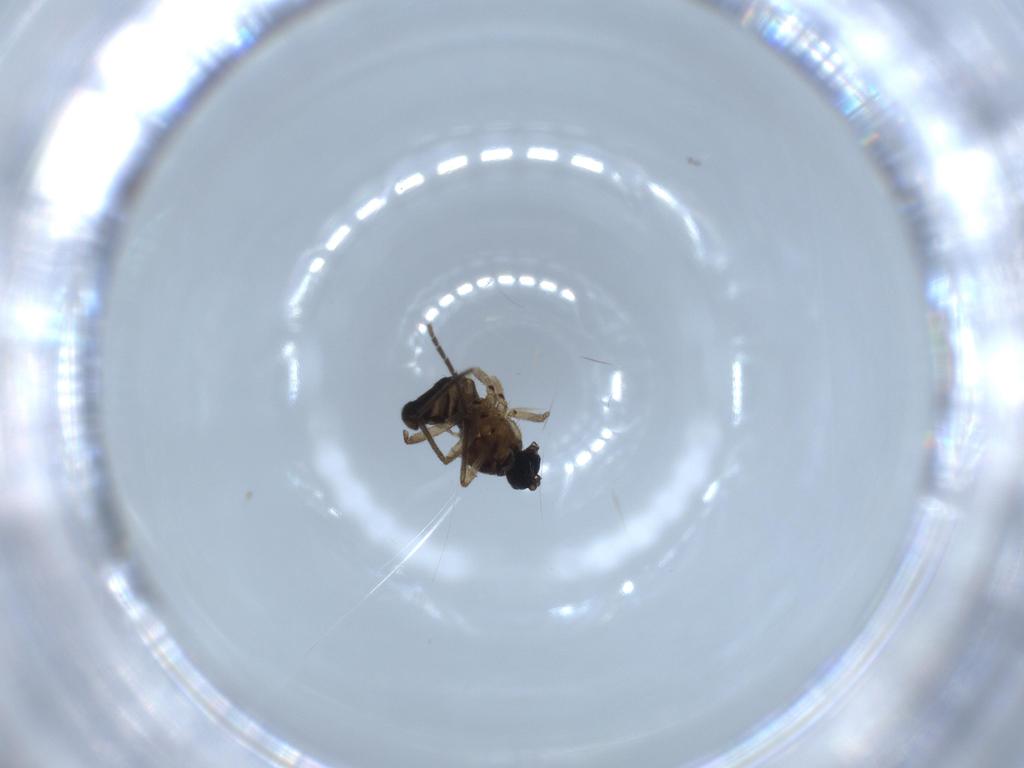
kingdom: Animalia
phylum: Arthropoda
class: Insecta
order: Diptera
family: Sciaridae
